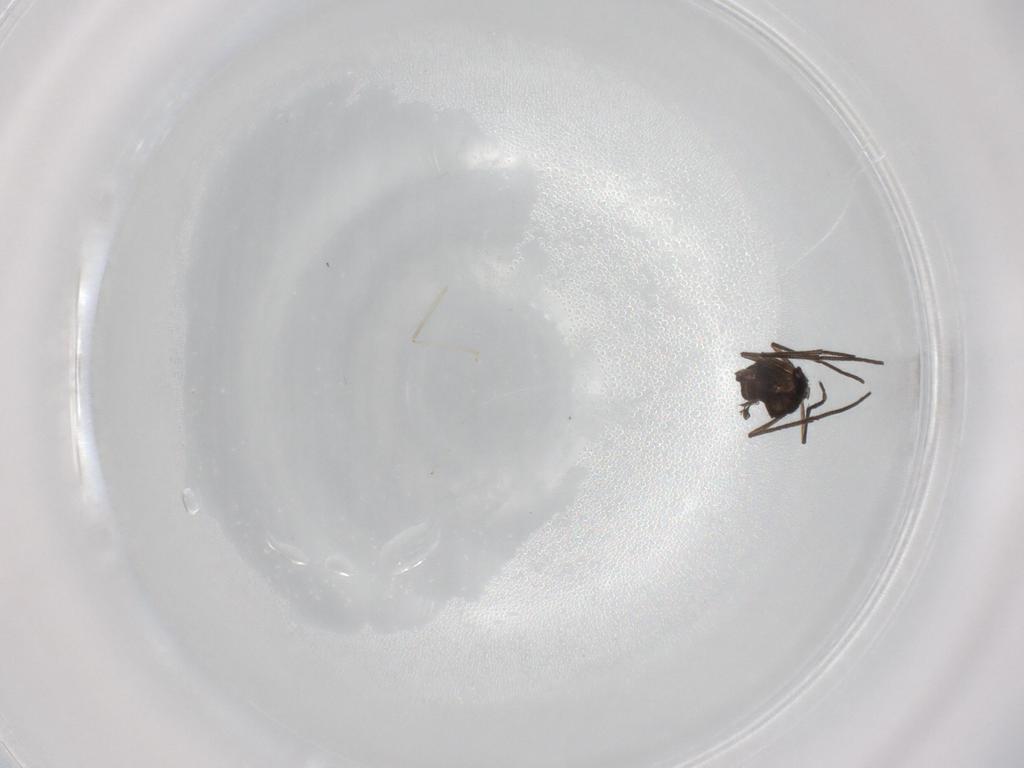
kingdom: Animalia
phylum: Arthropoda
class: Insecta
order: Diptera
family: Sciaridae
